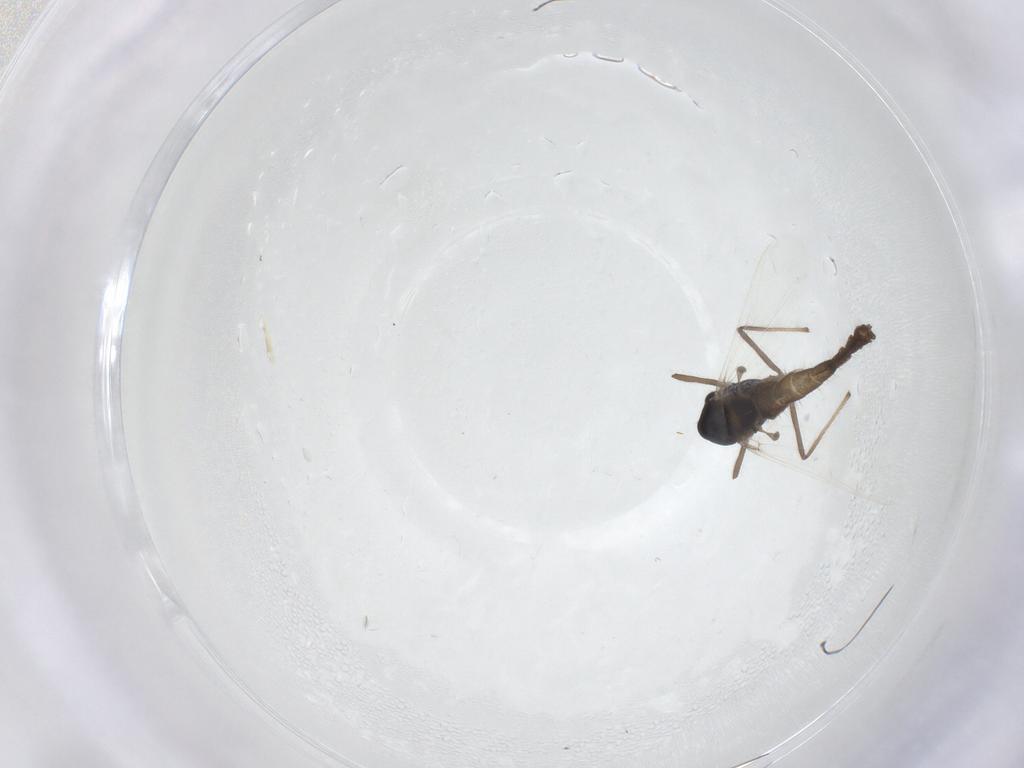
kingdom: Animalia
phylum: Arthropoda
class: Insecta
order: Diptera
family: Chironomidae
